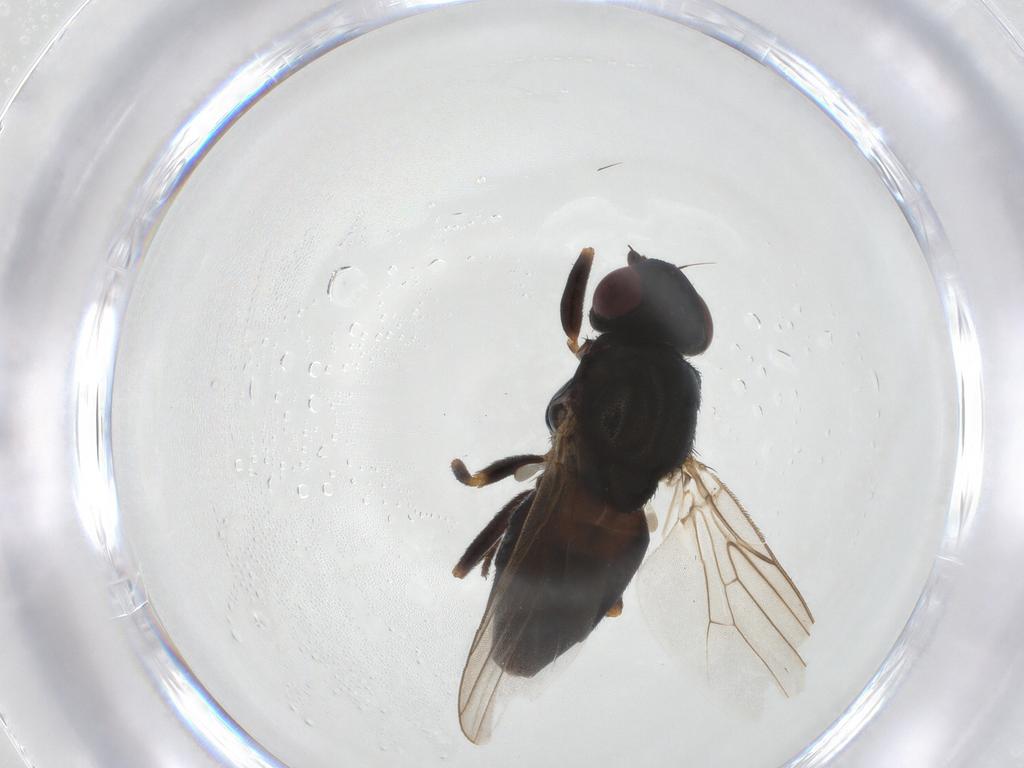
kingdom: Animalia
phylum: Arthropoda
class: Insecta
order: Diptera
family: Chloropidae
